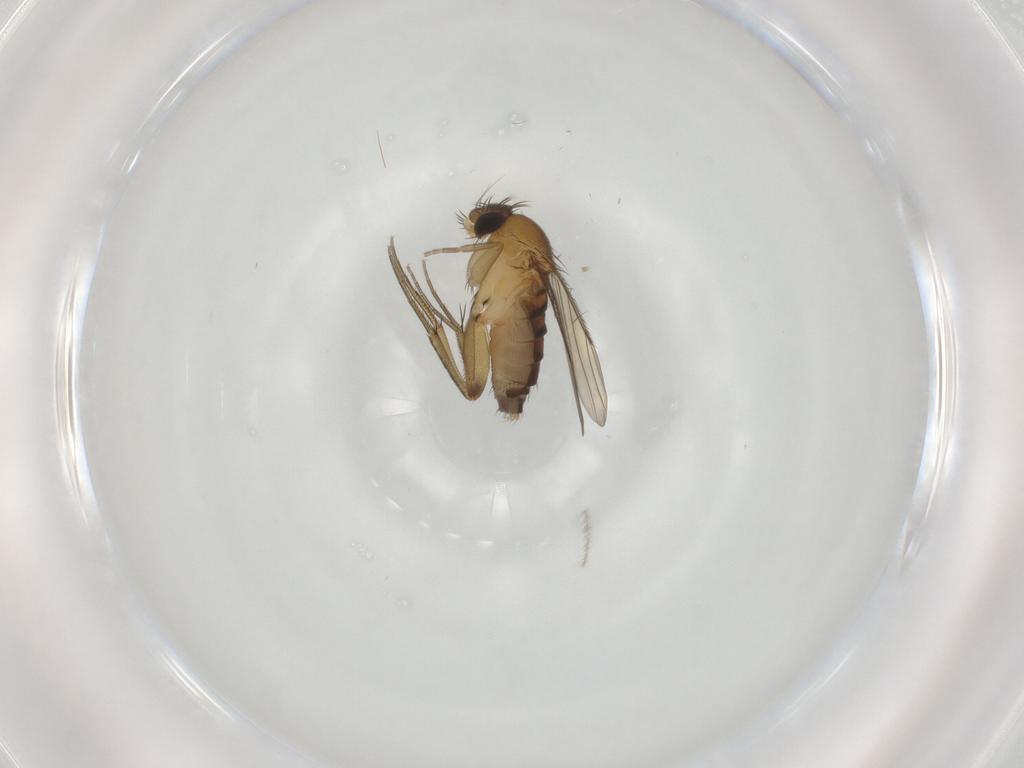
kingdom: Animalia
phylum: Arthropoda
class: Insecta
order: Diptera
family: Phoridae
